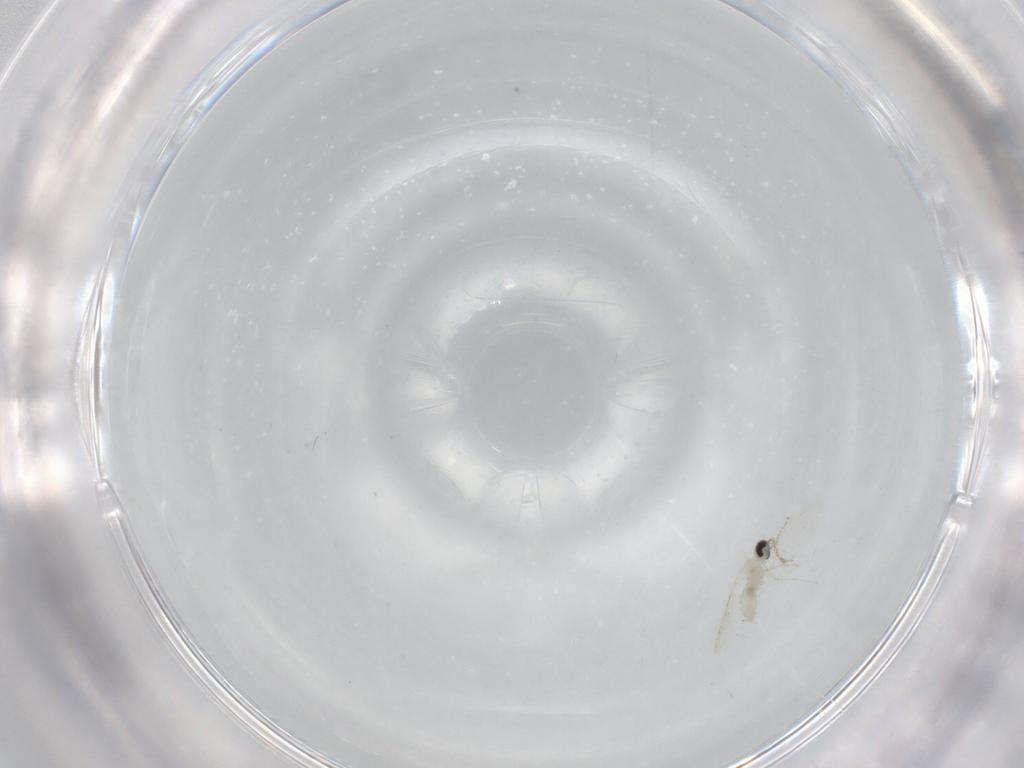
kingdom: Animalia
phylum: Arthropoda
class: Insecta
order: Diptera
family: Cecidomyiidae
